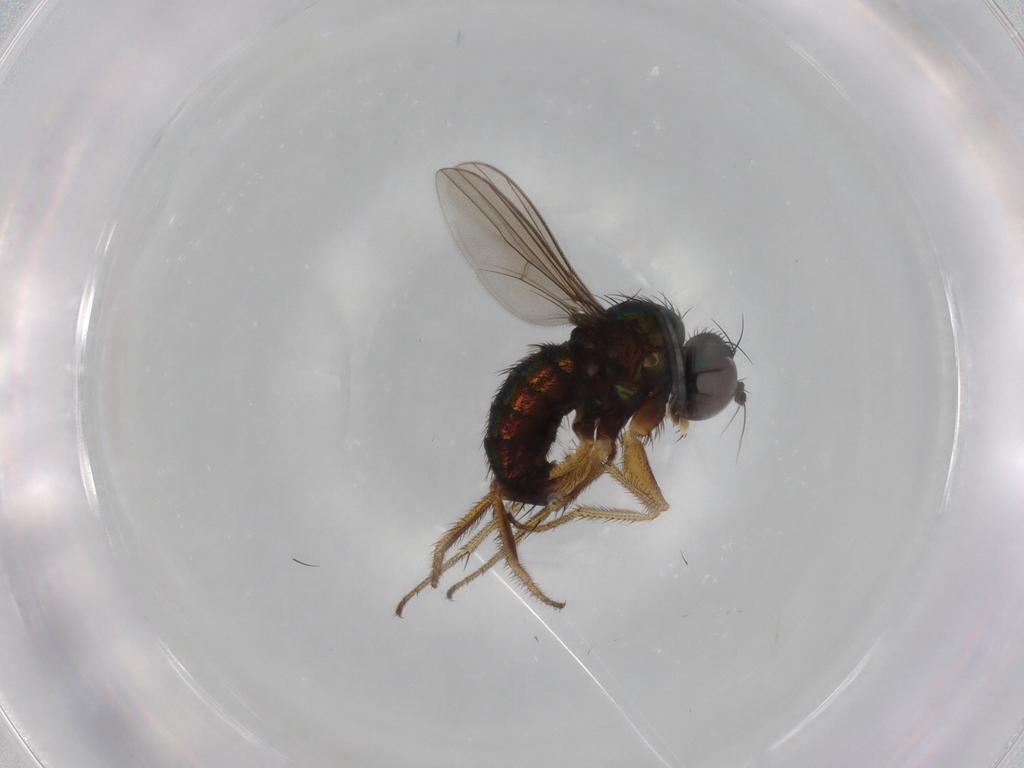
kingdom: Animalia
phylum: Arthropoda
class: Insecta
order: Diptera
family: Dolichopodidae
